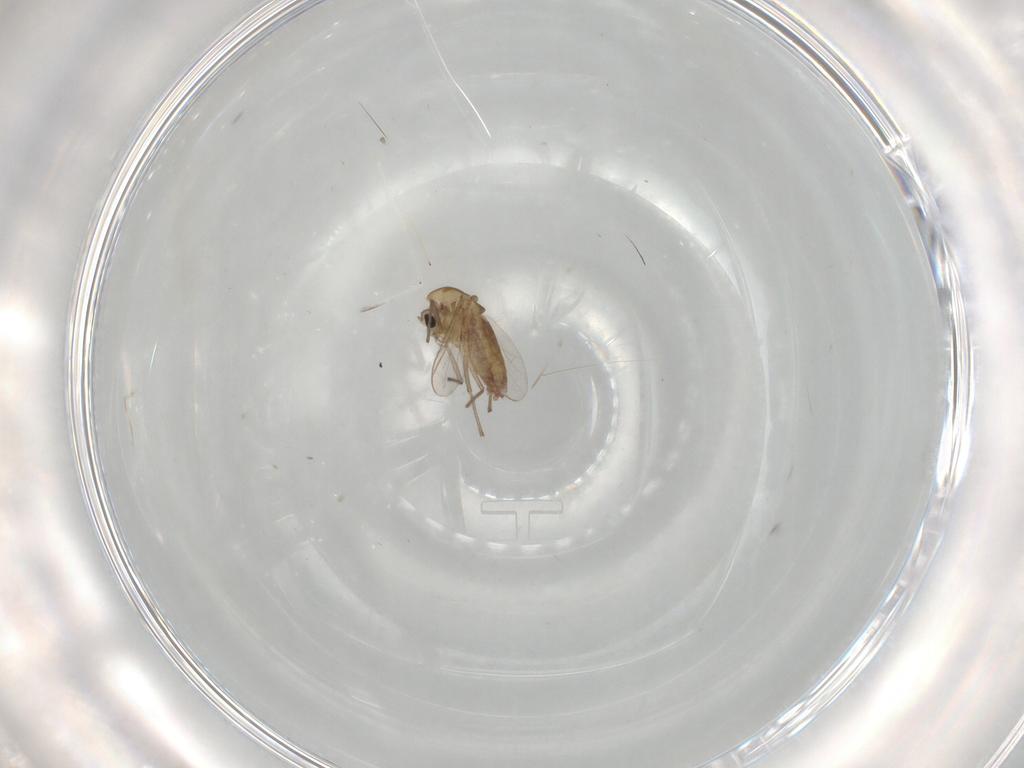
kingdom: Animalia
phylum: Arthropoda
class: Insecta
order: Diptera
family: Chironomidae
